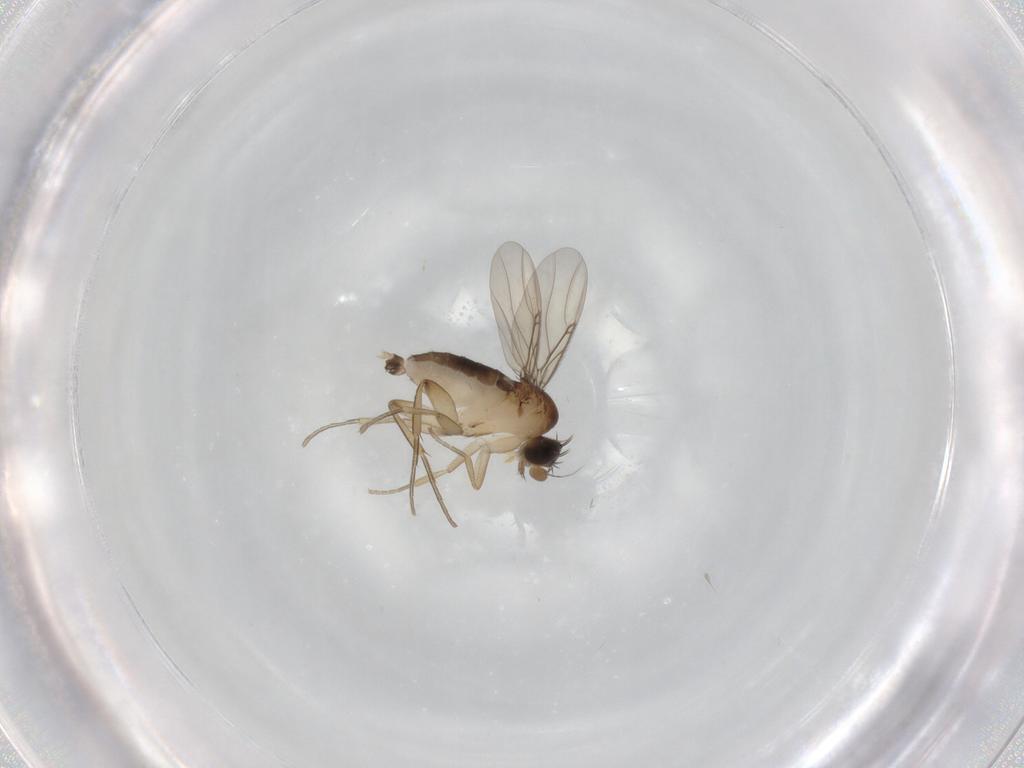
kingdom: Animalia
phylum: Arthropoda
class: Insecta
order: Diptera
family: Phoridae
